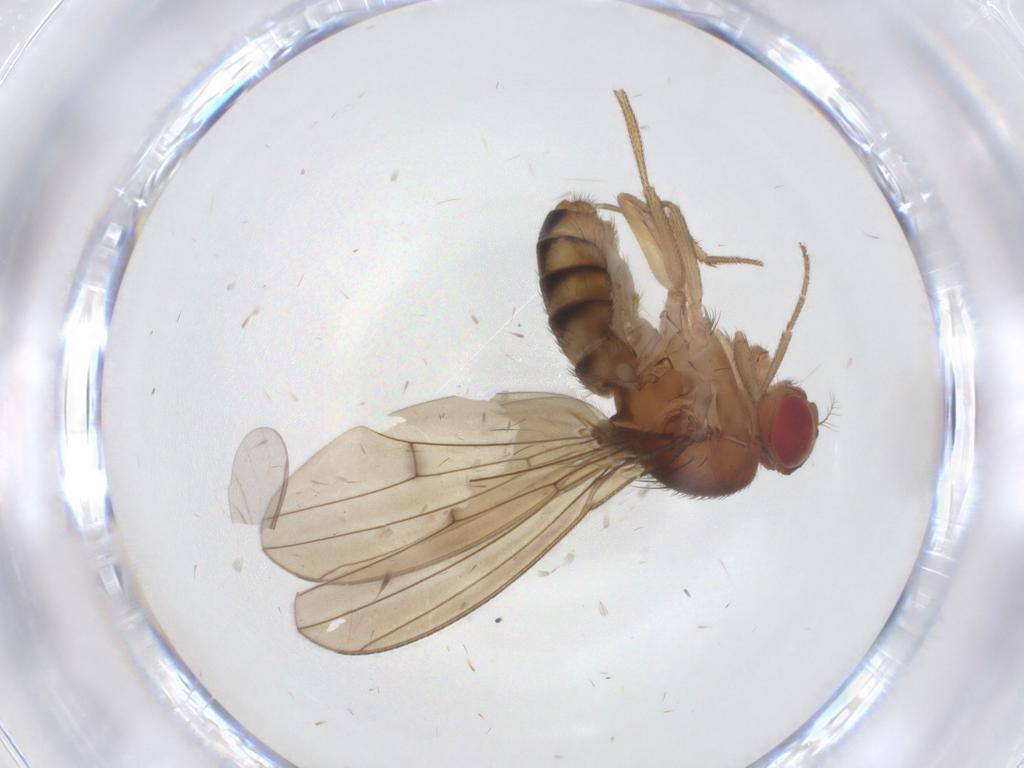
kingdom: Animalia
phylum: Arthropoda
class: Insecta
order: Diptera
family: Drosophilidae
